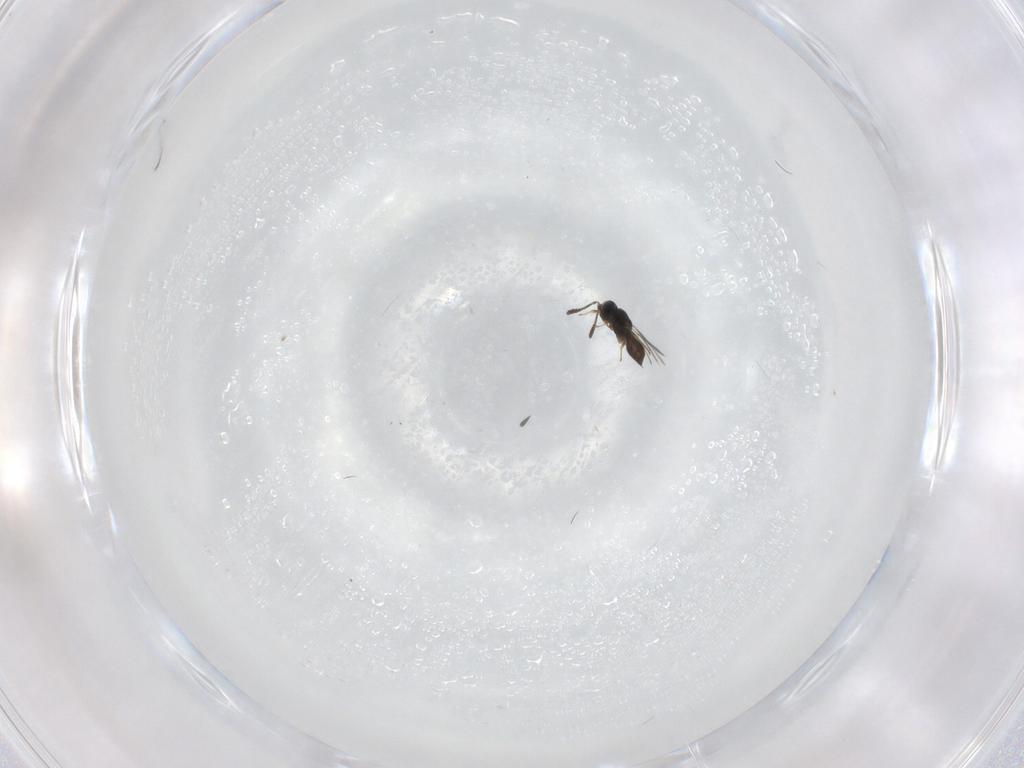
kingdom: Animalia
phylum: Arthropoda
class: Insecta
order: Hymenoptera
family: Scelionidae
